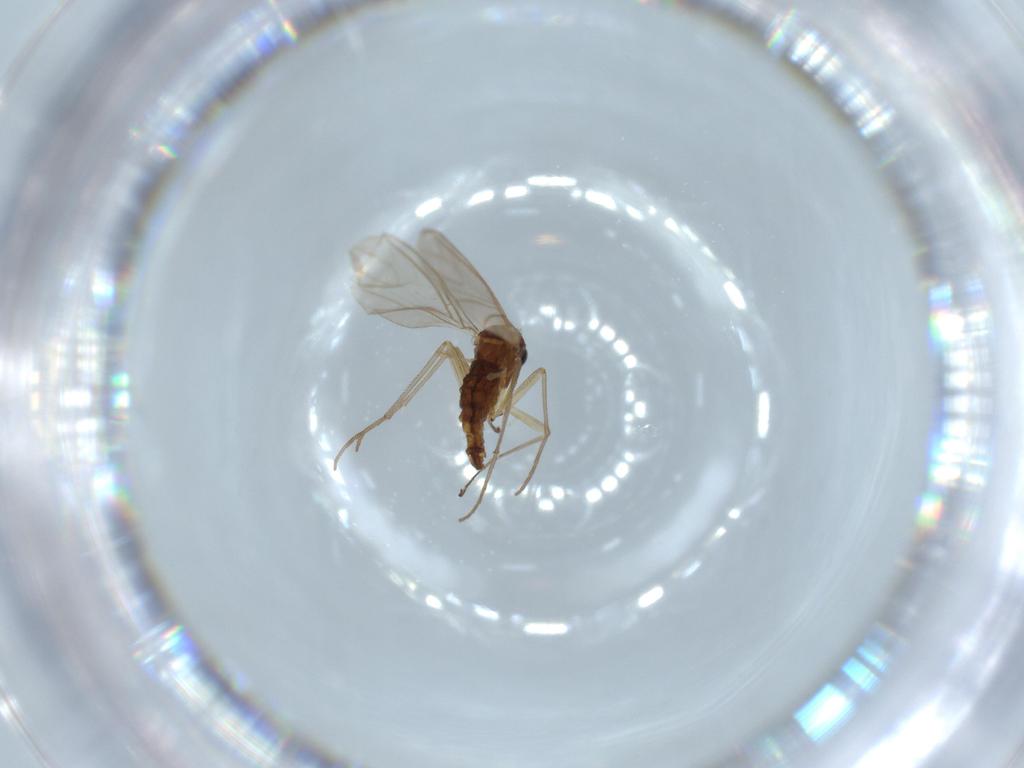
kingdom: Animalia
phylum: Arthropoda
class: Insecta
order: Diptera
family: Sciaridae
